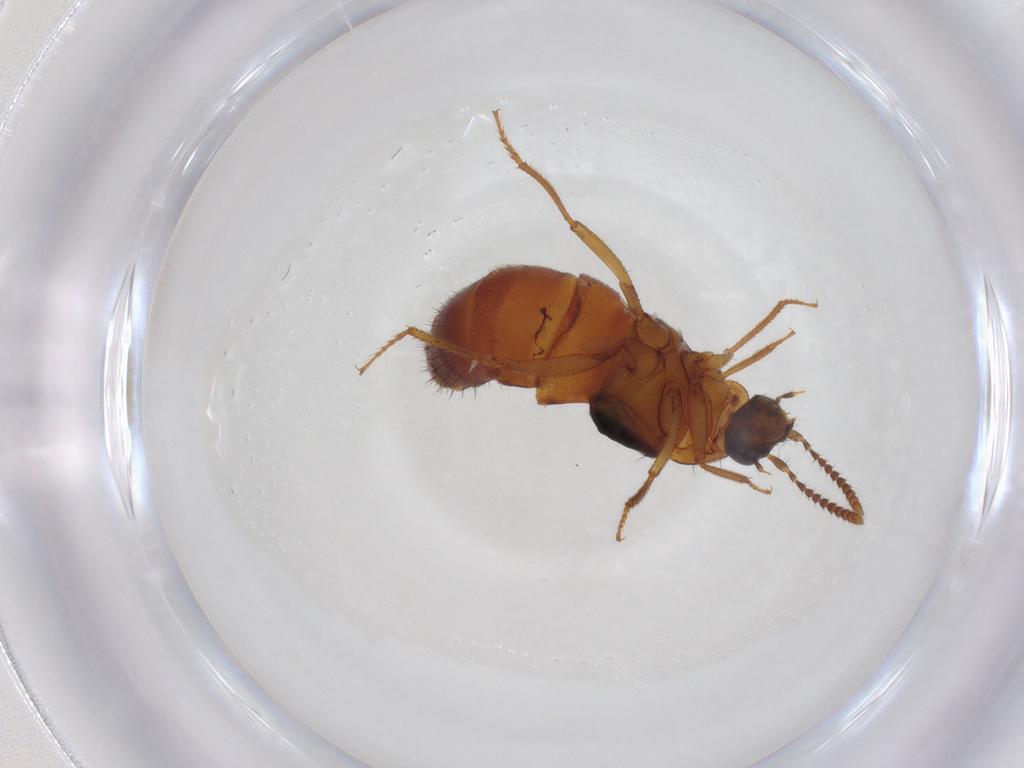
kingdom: Animalia
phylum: Arthropoda
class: Insecta
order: Coleoptera
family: Staphylinidae
